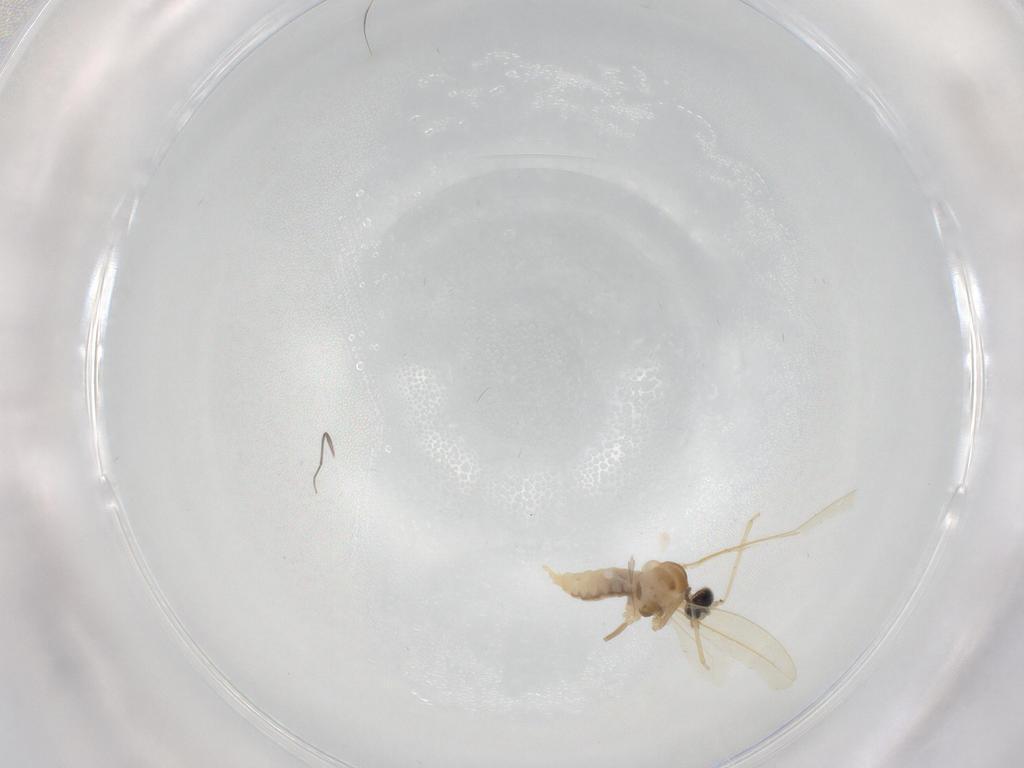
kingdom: Animalia
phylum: Arthropoda
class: Insecta
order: Diptera
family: Cecidomyiidae
